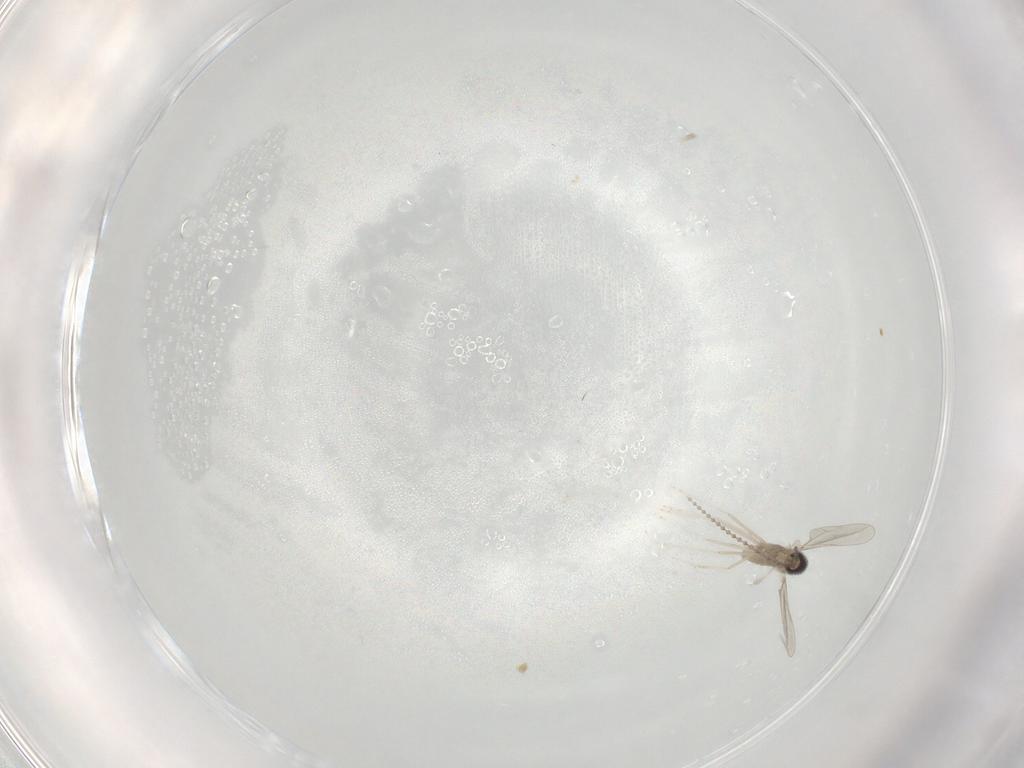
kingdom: Animalia
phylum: Arthropoda
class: Insecta
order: Diptera
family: Cecidomyiidae
